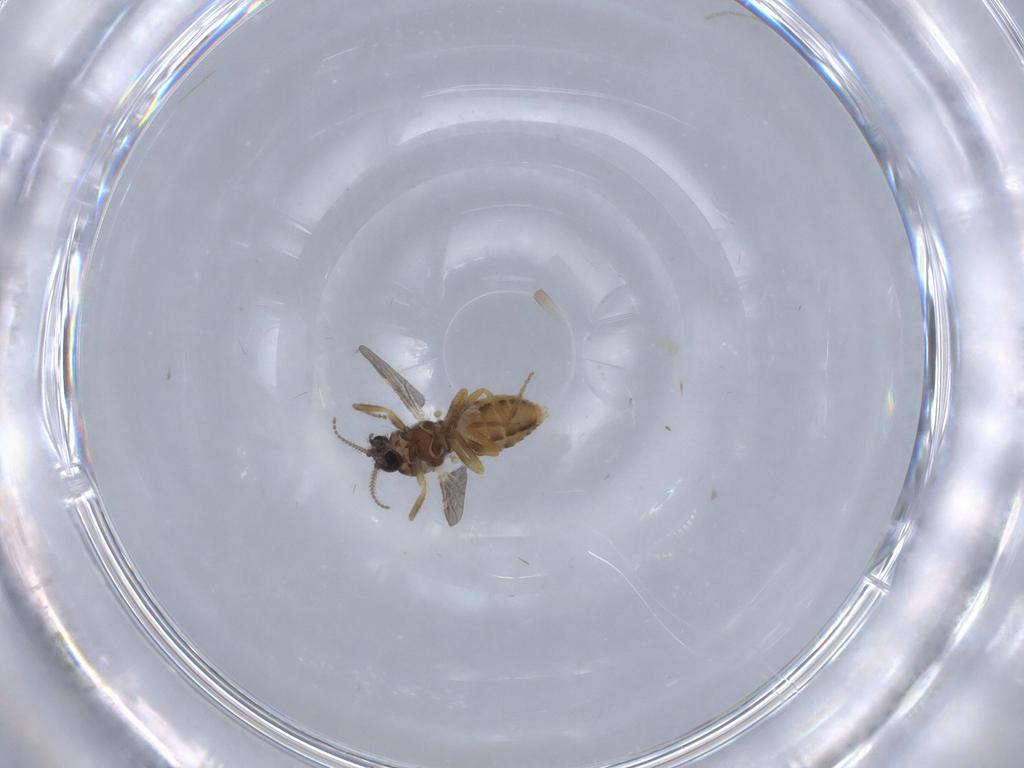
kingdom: Animalia
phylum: Arthropoda
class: Insecta
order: Diptera
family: Ceratopogonidae
